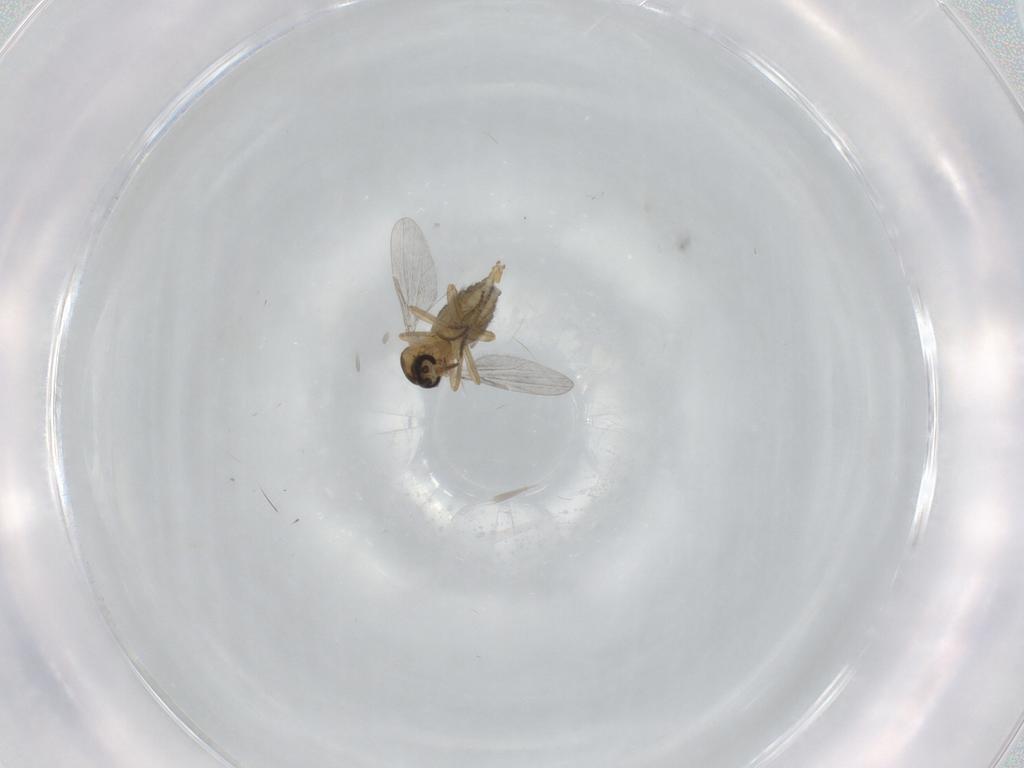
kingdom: Animalia
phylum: Arthropoda
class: Insecta
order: Diptera
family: Ceratopogonidae
